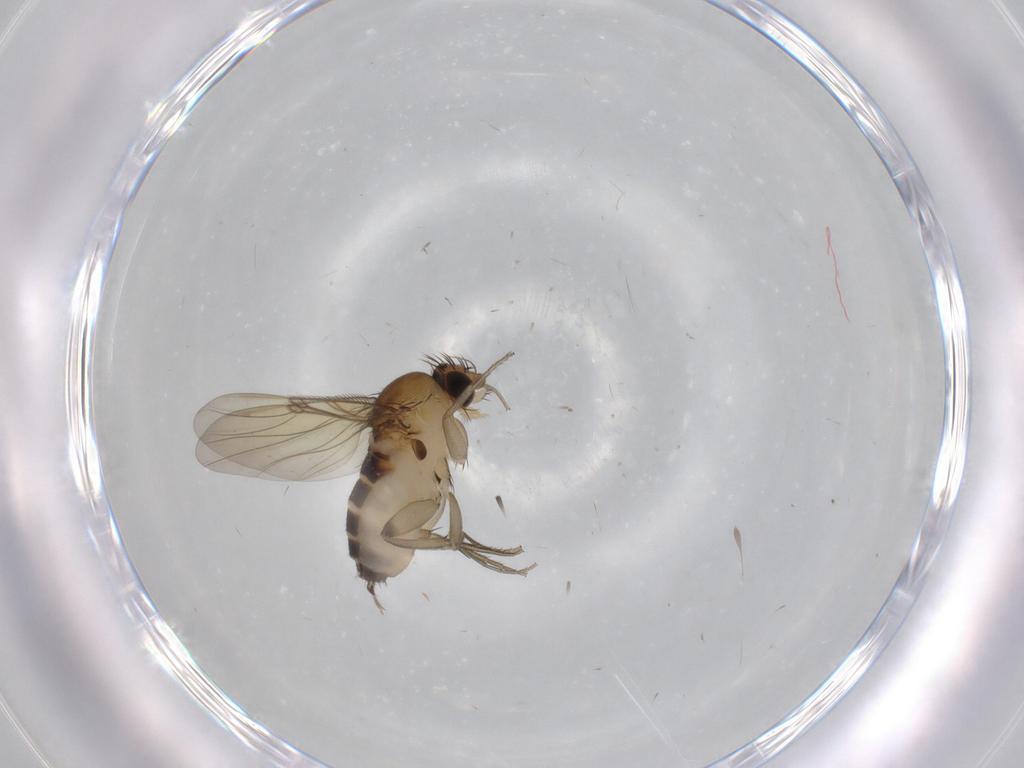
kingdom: Animalia
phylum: Arthropoda
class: Insecta
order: Diptera
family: Phoridae
